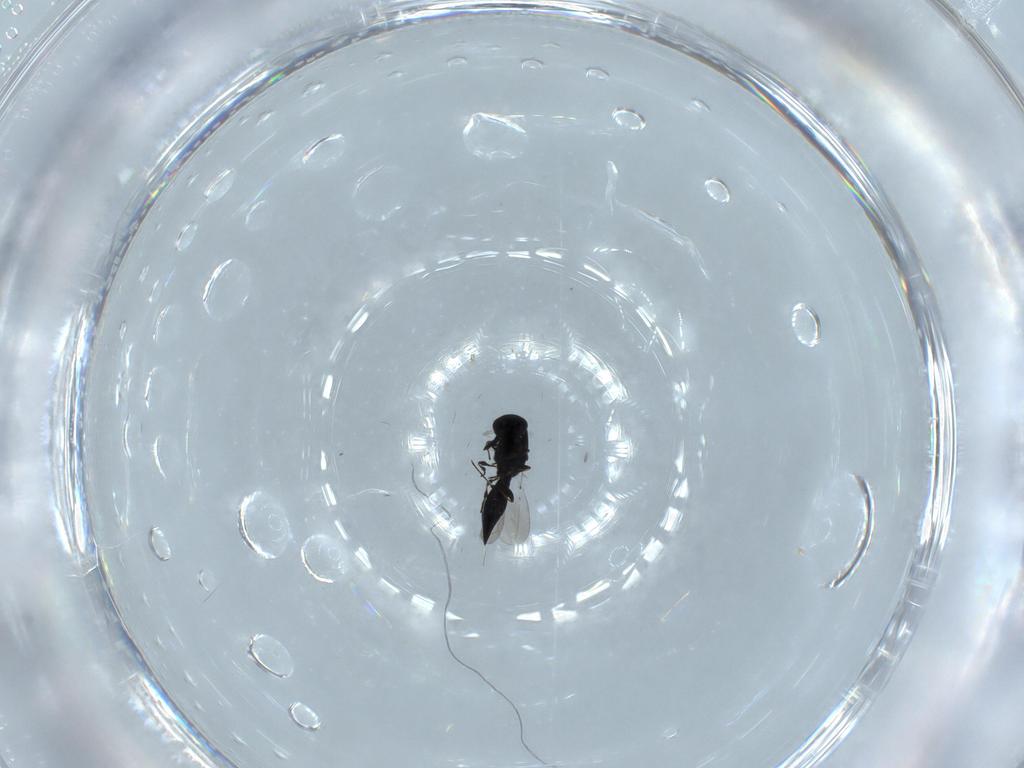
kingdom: Animalia
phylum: Arthropoda
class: Insecta
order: Hymenoptera
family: Platygastridae
